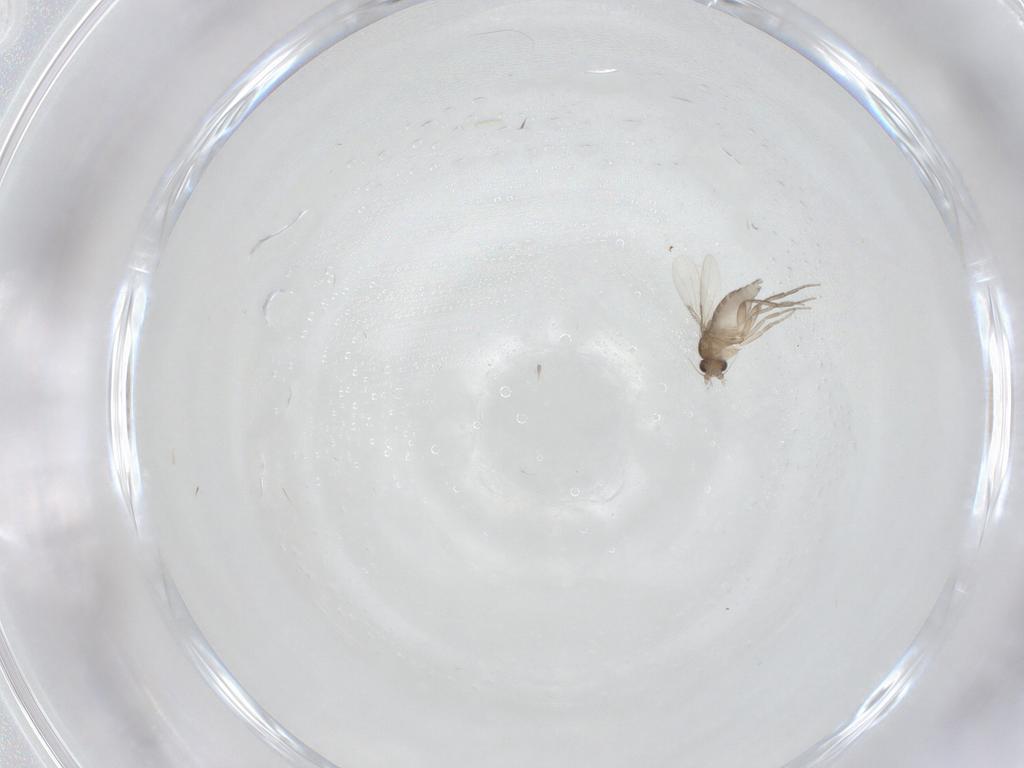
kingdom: Animalia
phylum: Arthropoda
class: Insecta
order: Diptera
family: Phoridae
